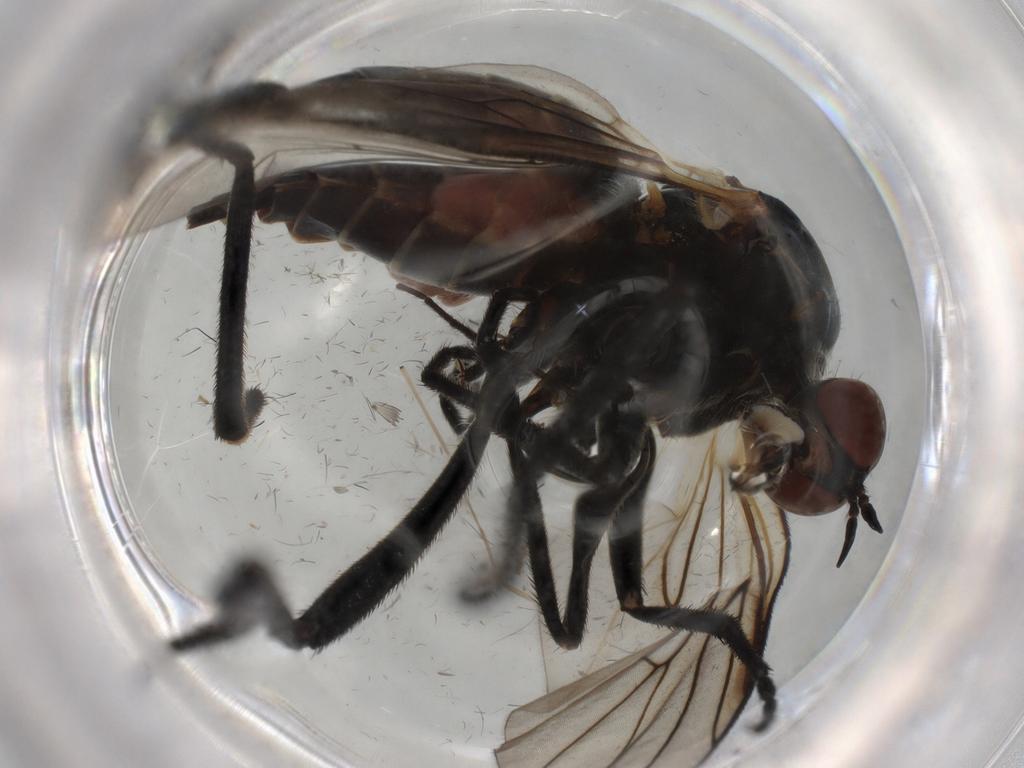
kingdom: Animalia
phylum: Arthropoda
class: Insecta
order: Diptera
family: Empididae
